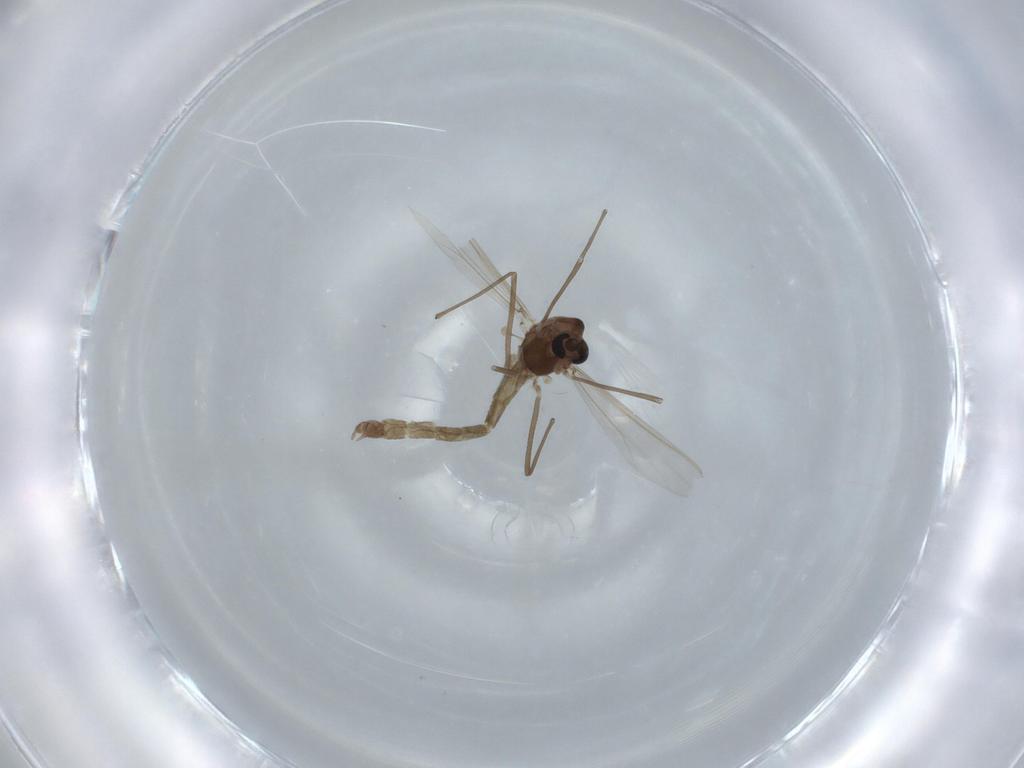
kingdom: Animalia
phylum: Arthropoda
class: Insecta
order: Diptera
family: Chironomidae
